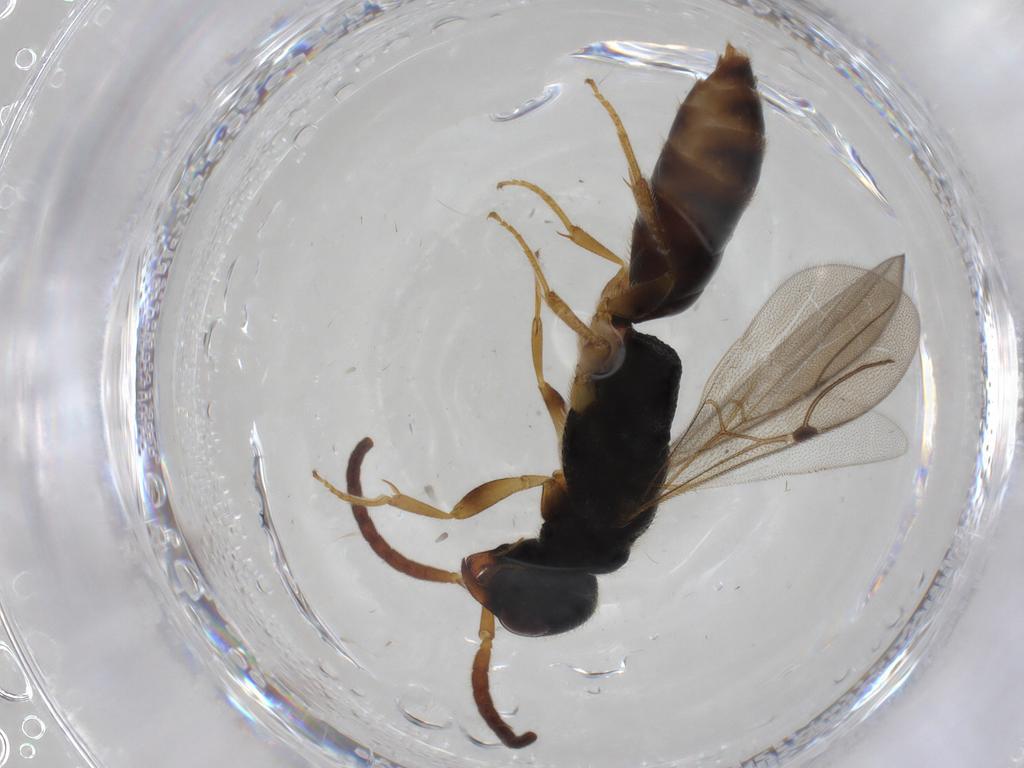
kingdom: Animalia
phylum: Arthropoda
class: Insecta
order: Hymenoptera
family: Bethylidae
